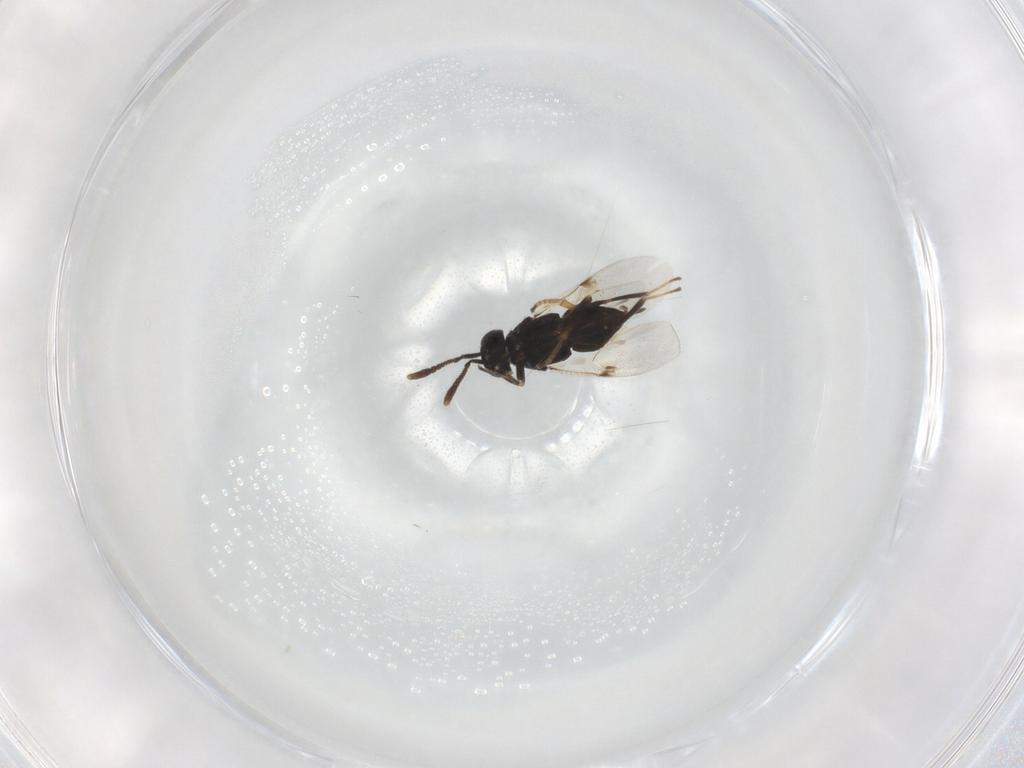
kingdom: Animalia
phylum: Arthropoda
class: Insecta
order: Hymenoptera
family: Encyrtidae
